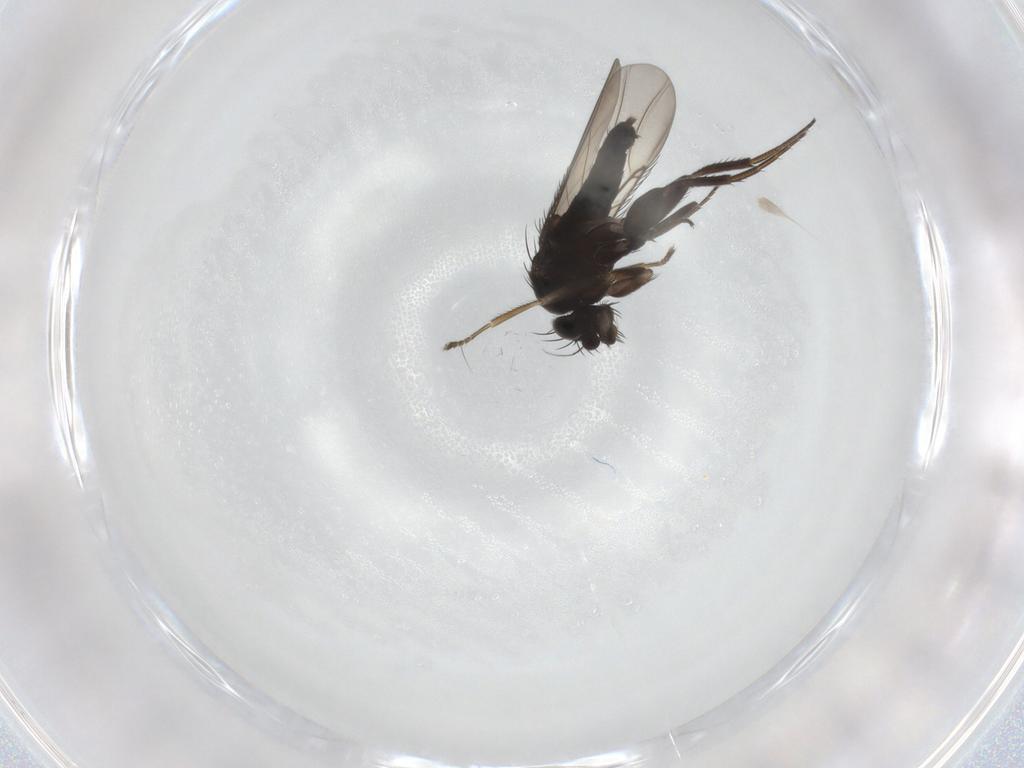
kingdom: Animalia
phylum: Arthropoda
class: Insecta
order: Diptera
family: Phoridae
